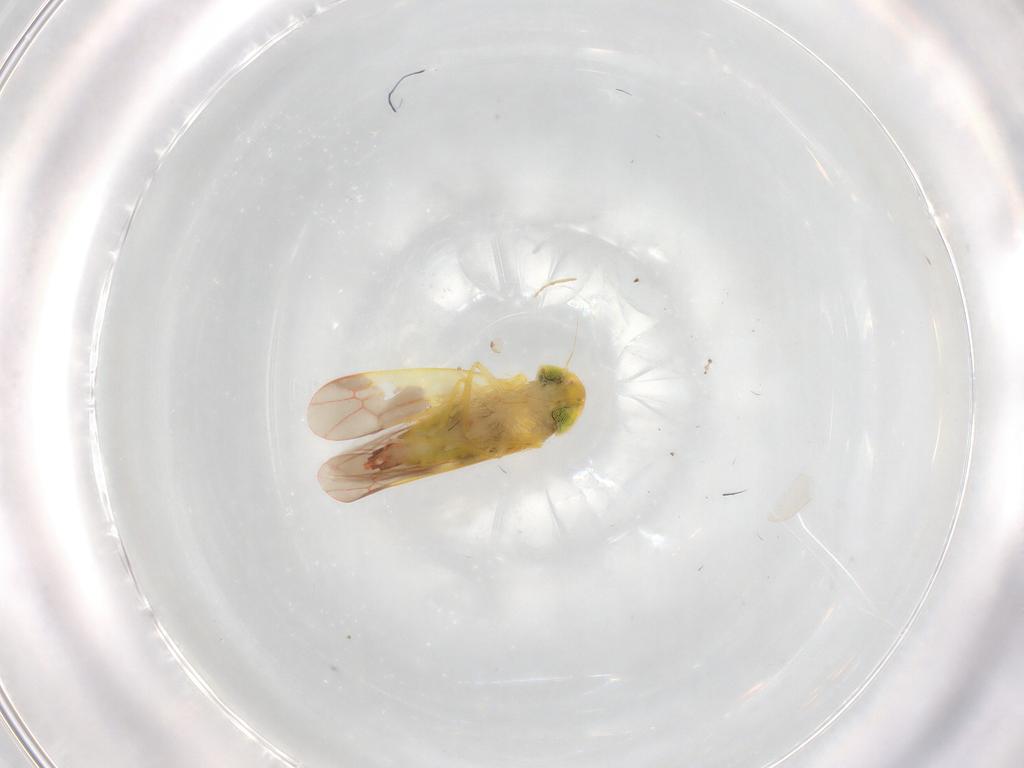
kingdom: Animalia
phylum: Arthropoda
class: Insecta
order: Hemiptera
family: Cicadellidae
